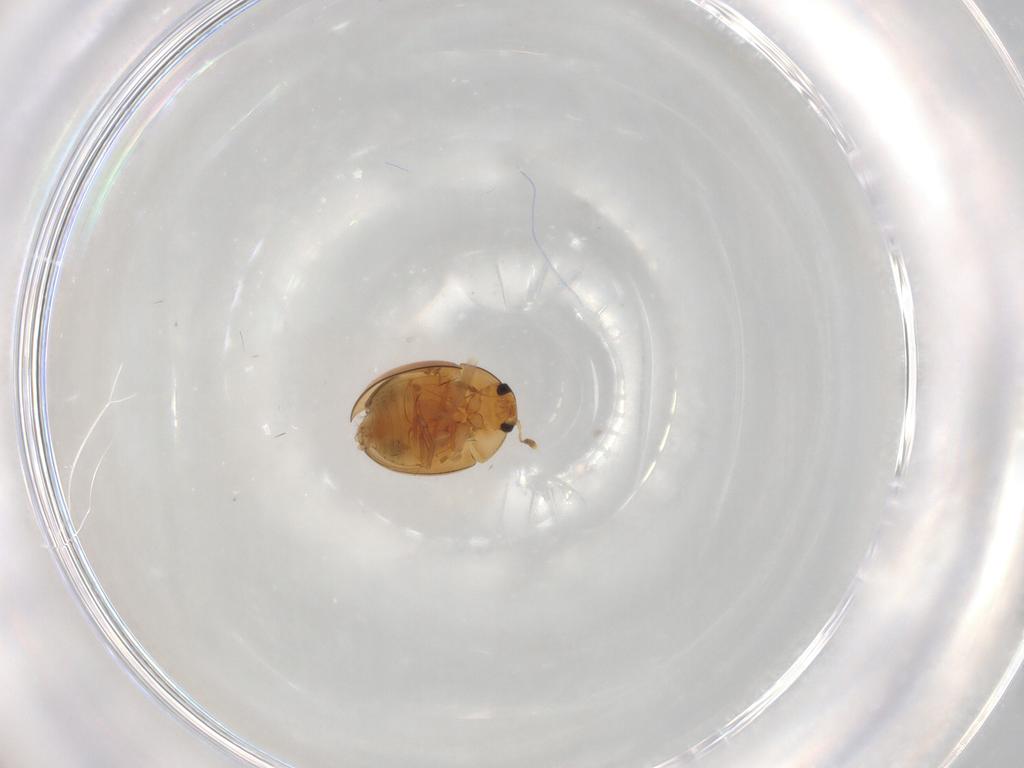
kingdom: Animalia
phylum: Arthropoda
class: Insecta
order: Coleoptera
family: Corylophidae
